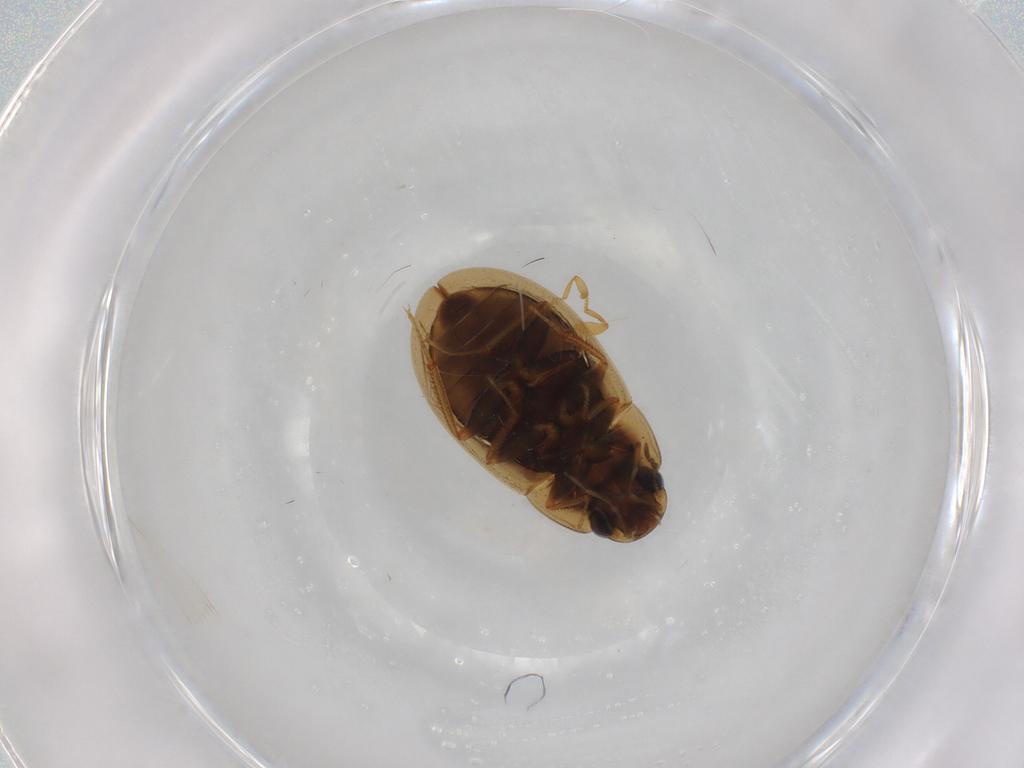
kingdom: Animalia
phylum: Arthropoda
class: Insecta
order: Coleoptera
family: Hydrophilidae
